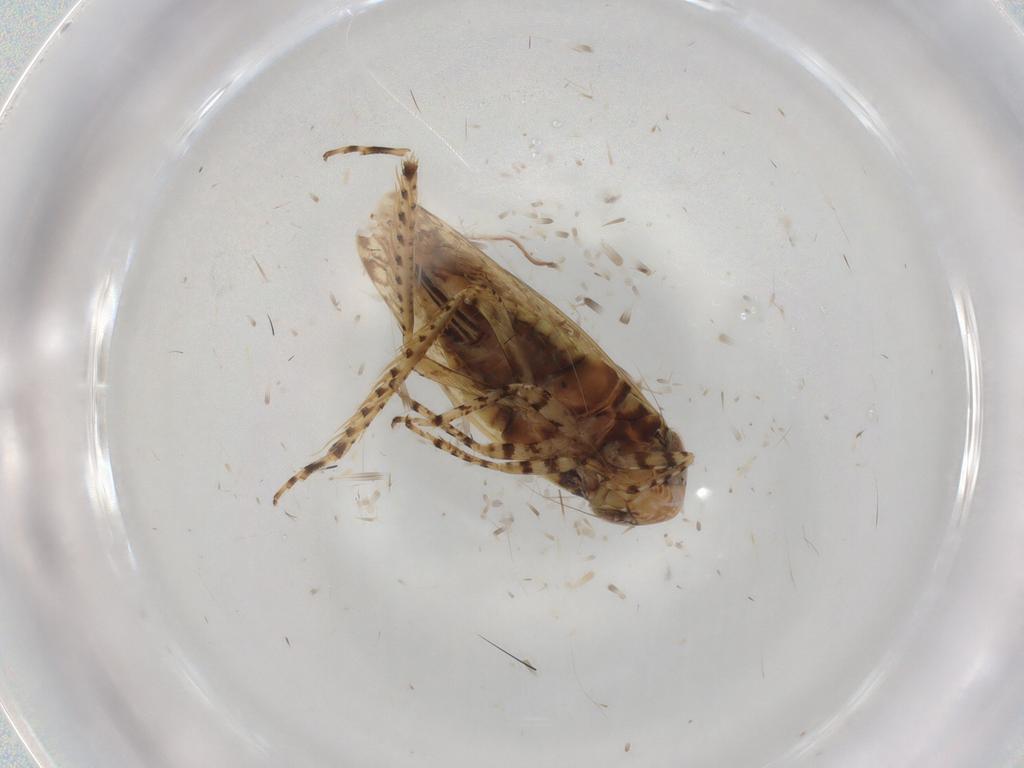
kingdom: Animalia
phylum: Arthropoda
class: Insecta
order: Hemiptera
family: Cicadellidae
